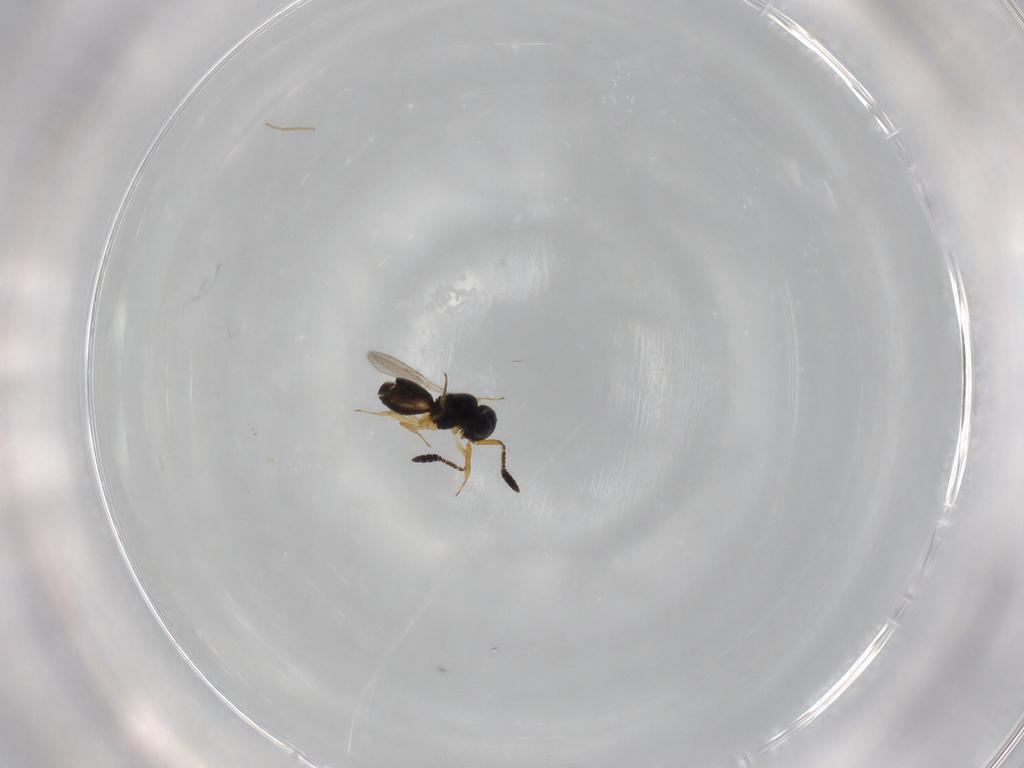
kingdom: Animalia
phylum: Arthropoda
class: Insecta
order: Hymenoptera
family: Scelionidae
